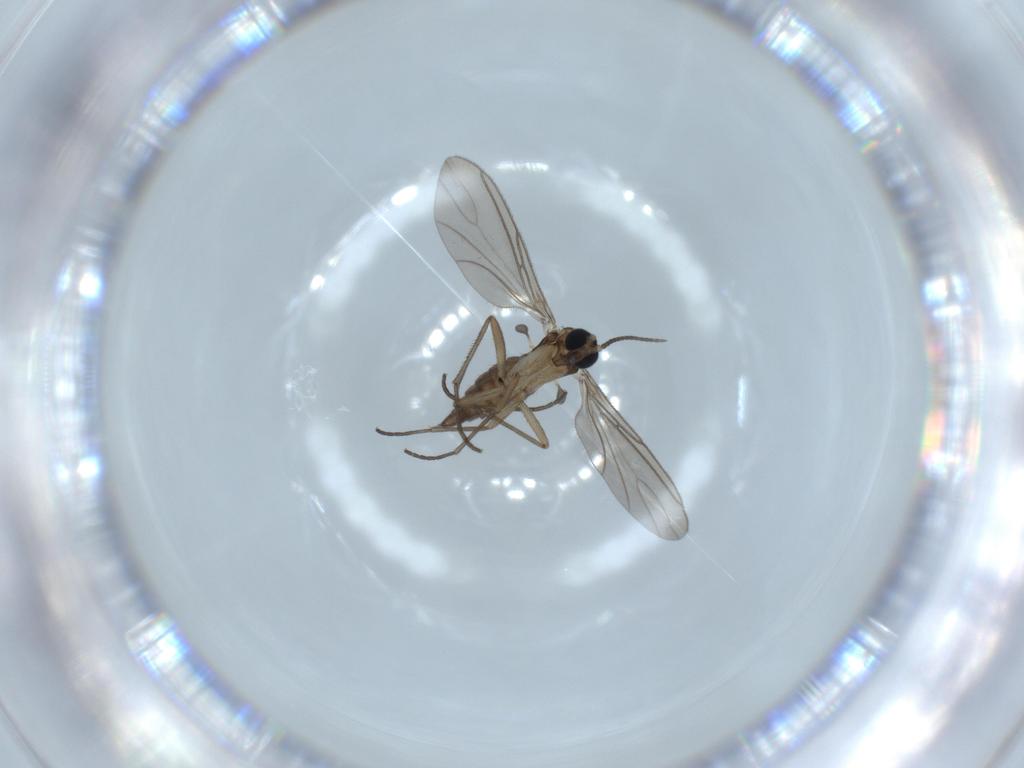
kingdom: Animalia
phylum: Arthropoda
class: Insecta
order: Diptera
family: Sciaridae
